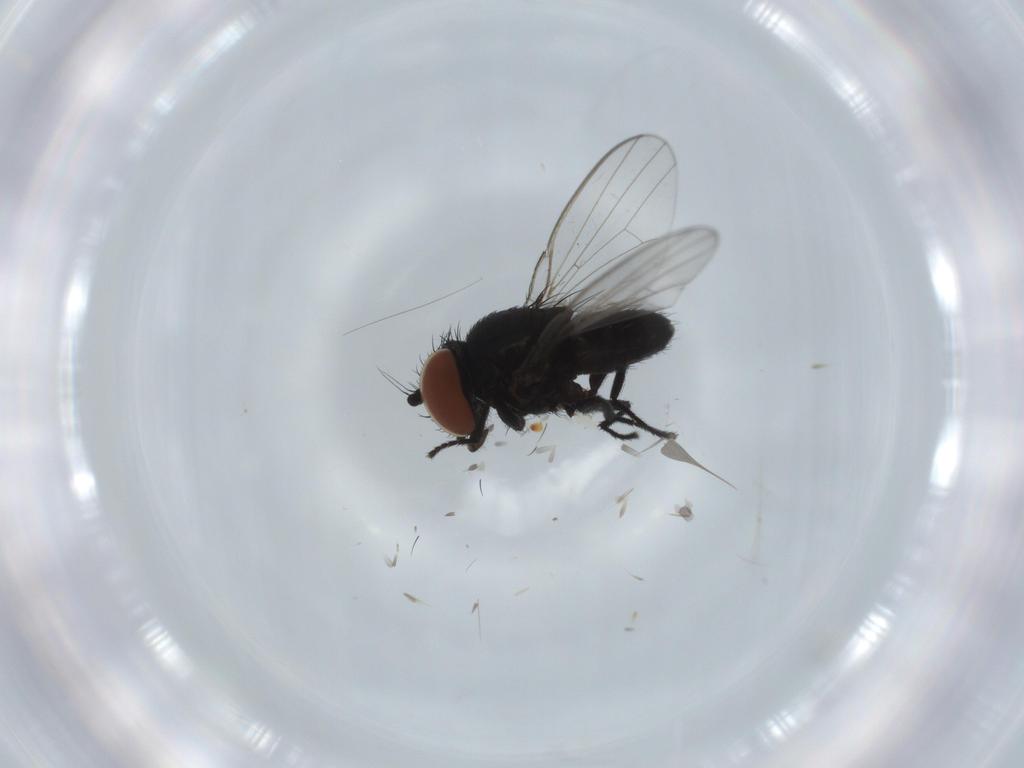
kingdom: Animalia
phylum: Arthropoda
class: Insecta
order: Diptera
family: Milichiidae
